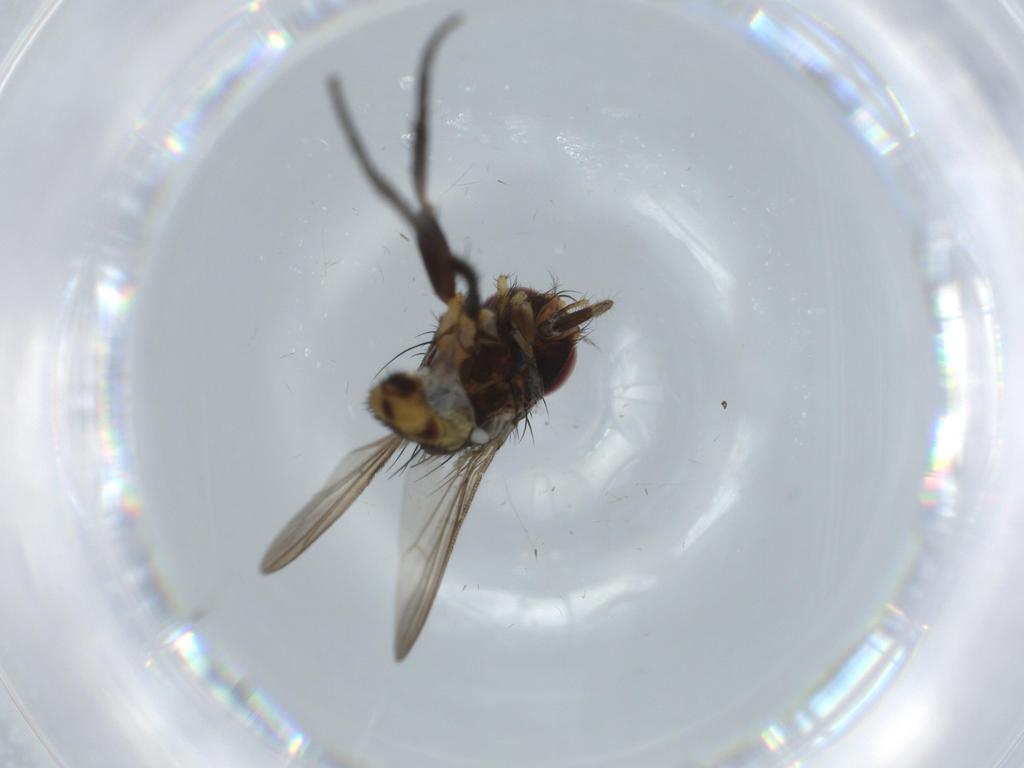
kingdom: Animalia
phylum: Arthropoda
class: Insecta
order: Diptera
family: Anthomyiidae
